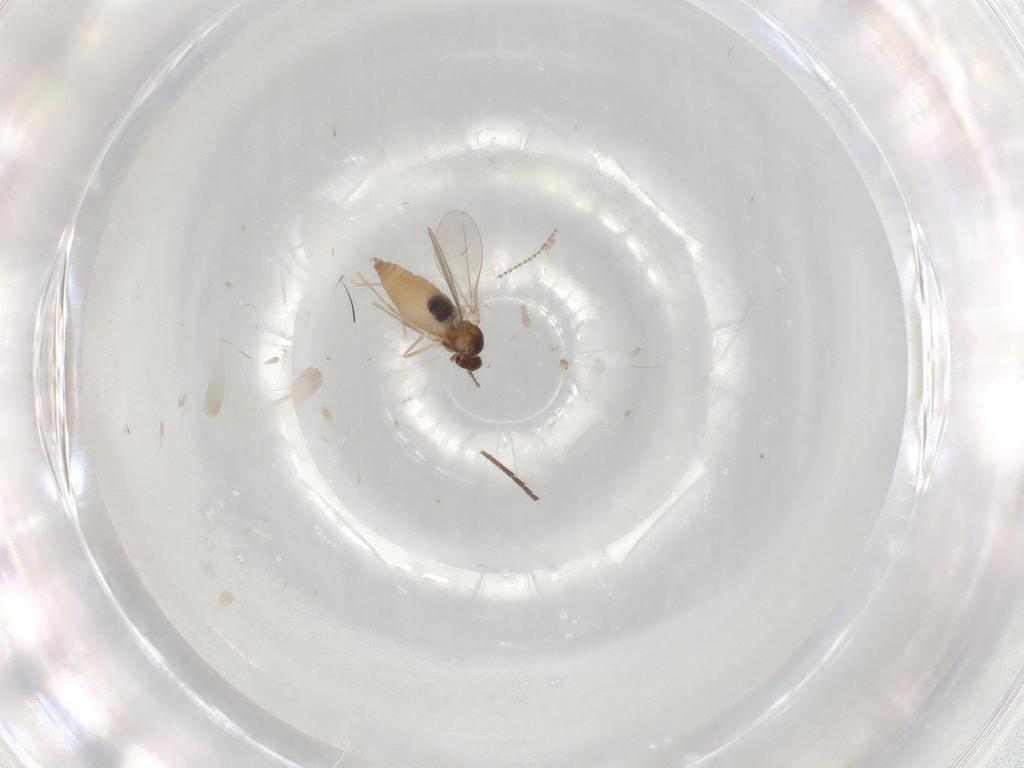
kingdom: Animalia
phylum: Arthropoda
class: Insecta
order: Diptera
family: Cecidomyiidae
